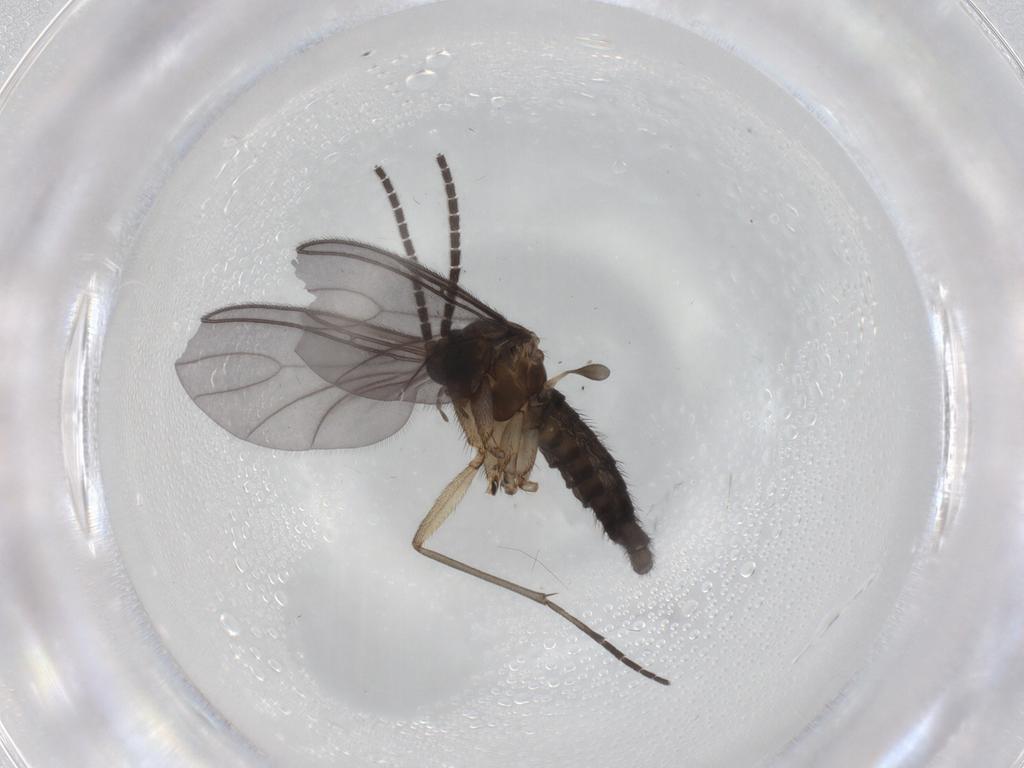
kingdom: Animalia
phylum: Arthropoda
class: Insecta
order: Diptera
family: Sciaridae
